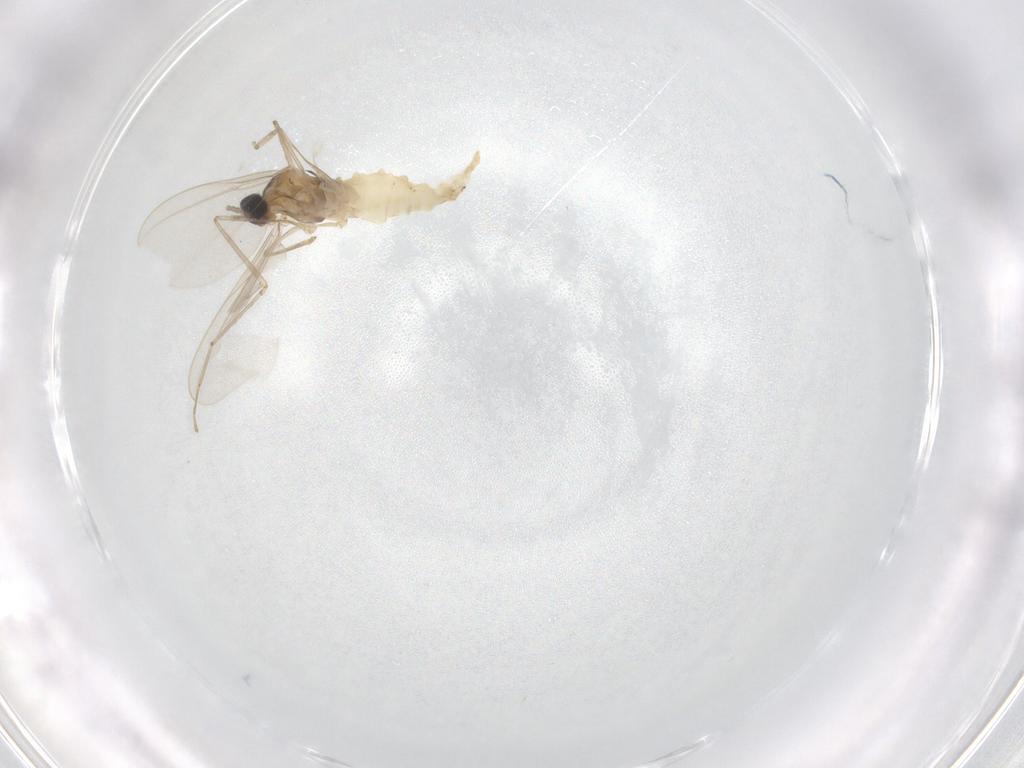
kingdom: Animalia
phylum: Arthropoda
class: Insecta
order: Diptera
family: Cecidomyiidae
